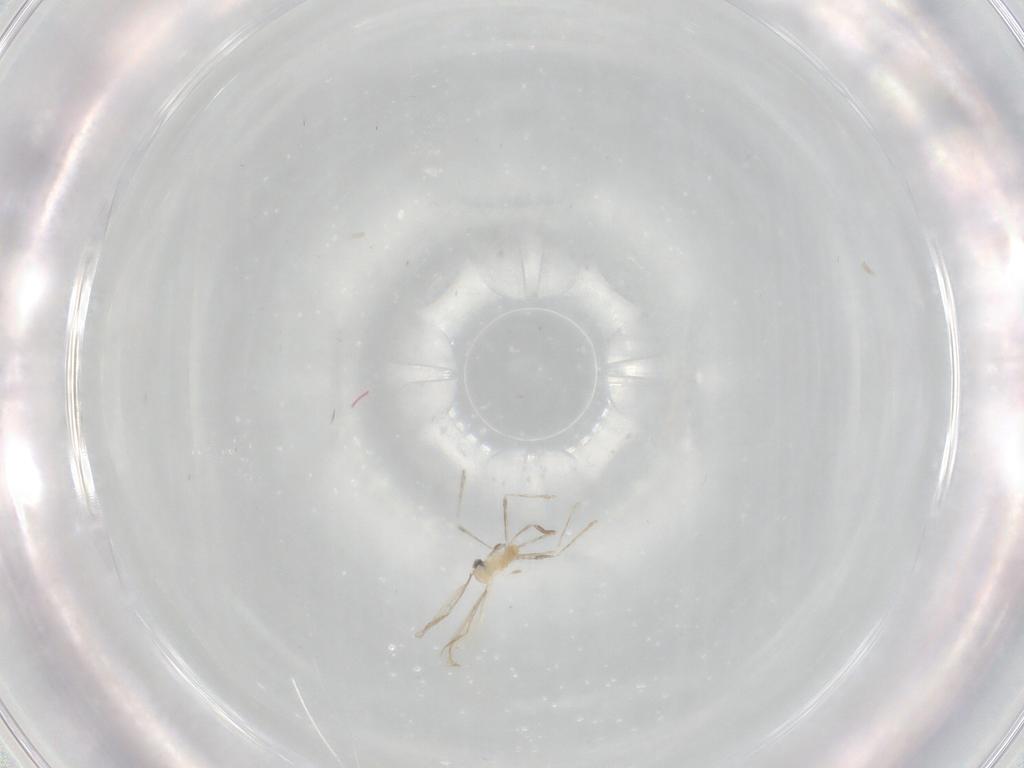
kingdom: Animalia
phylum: Arthropoda
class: Insecta
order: Diptera
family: Cecidomyiidae
